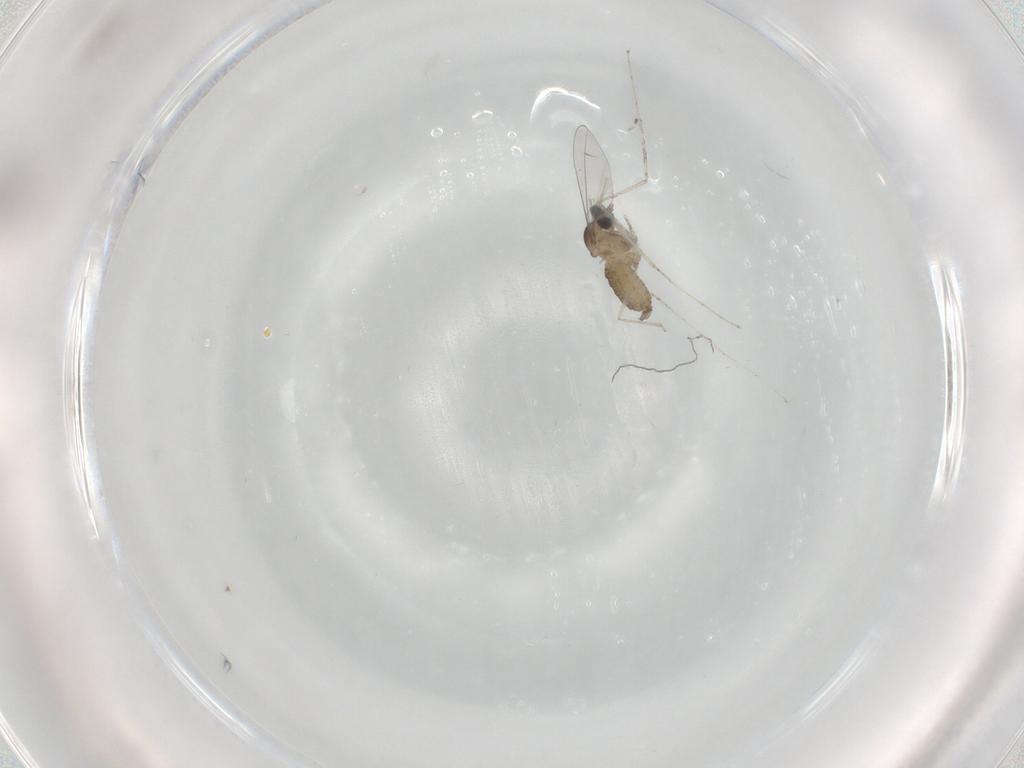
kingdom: Animalia
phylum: Arthropoda
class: Insecta
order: Diptera
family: Cecidomyiidae
